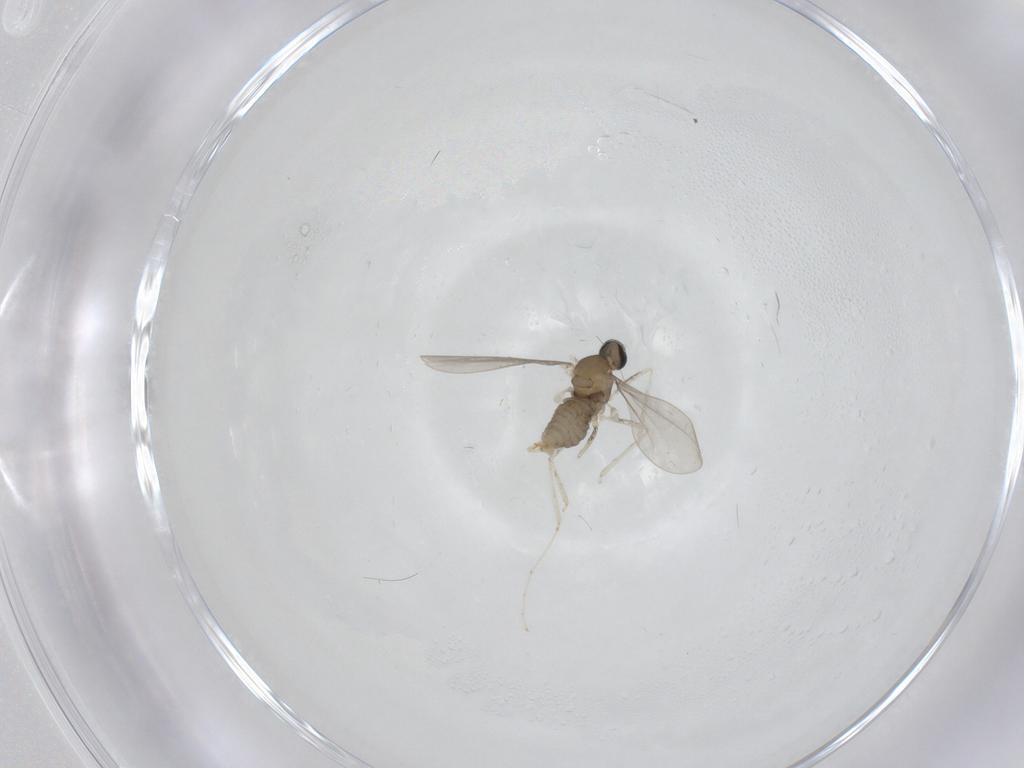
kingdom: Animalia
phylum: Arthropoda
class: Insecta
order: Diptera
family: Cecidomyiidae
